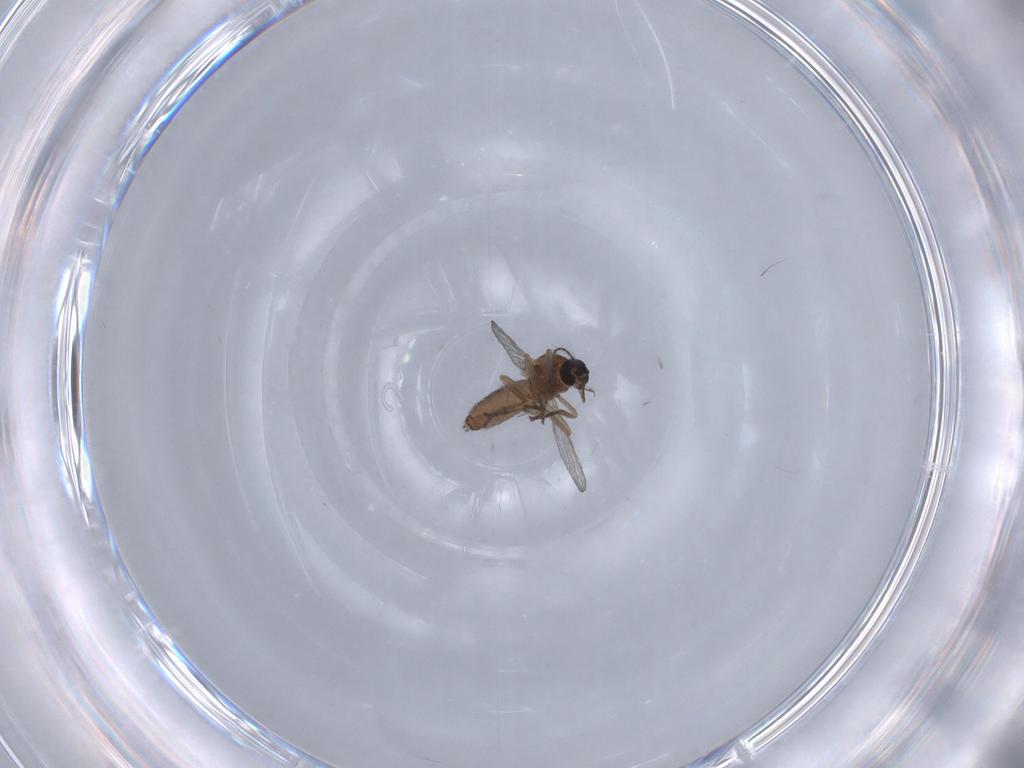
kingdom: Animalia
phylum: Arthropoda
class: Insecta
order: Diptera
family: Ceratopogonidae
